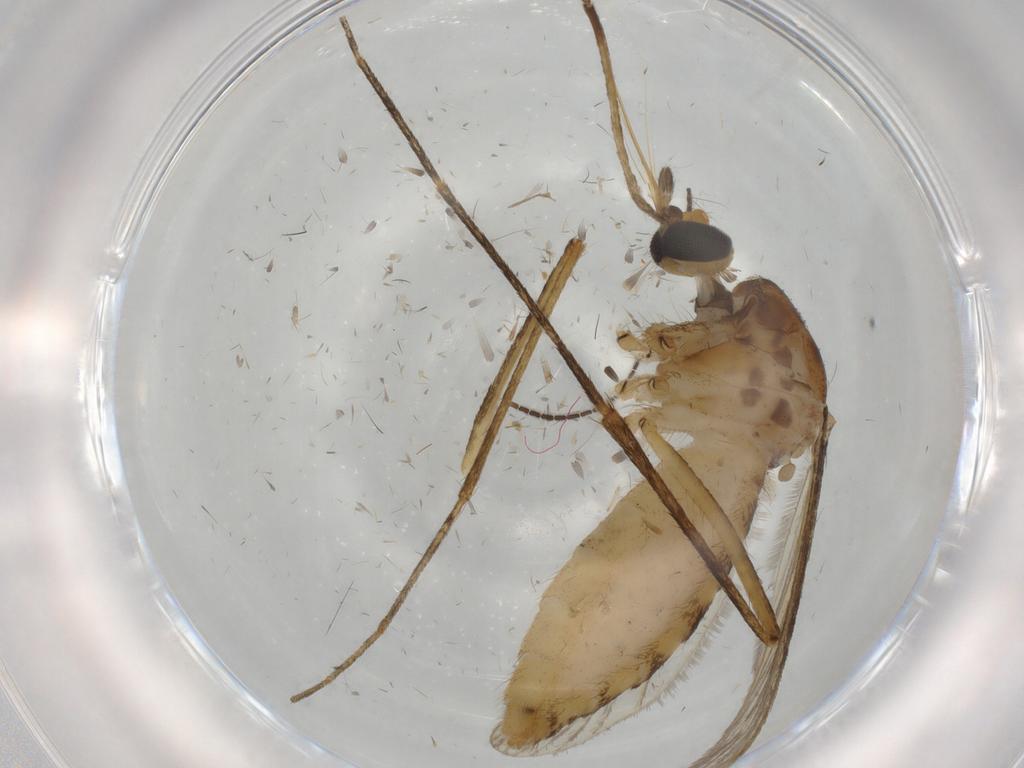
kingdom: Animalia
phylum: Arthropoda
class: Insecta
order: Diptera
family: Culicidae
